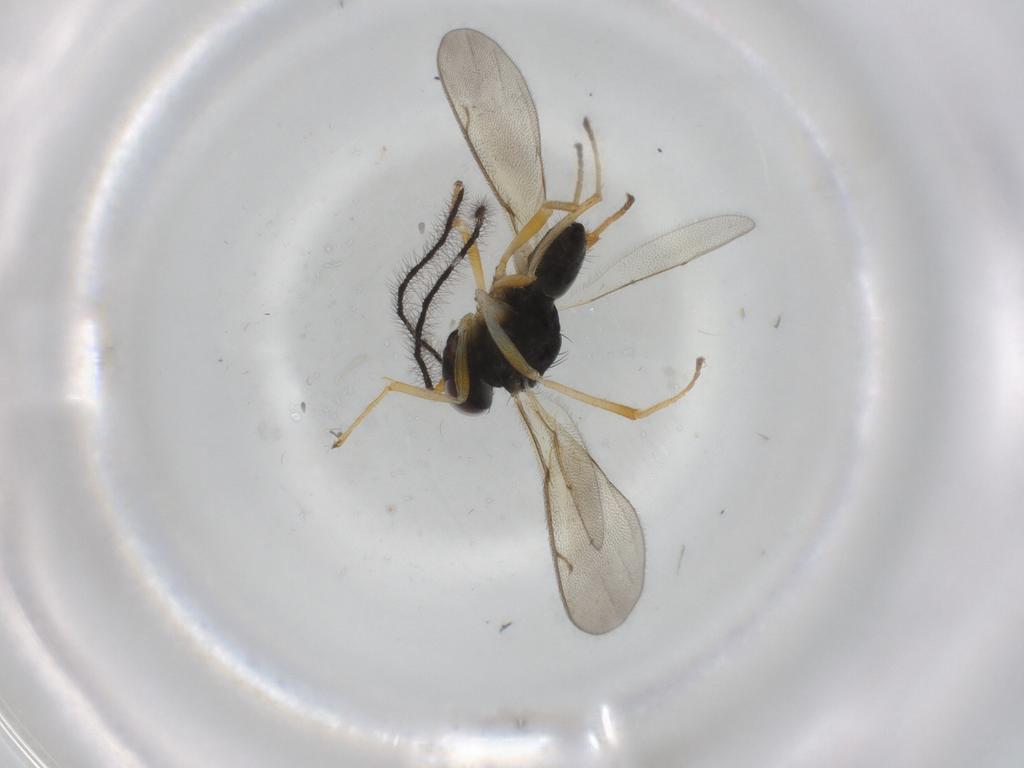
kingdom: Animalia
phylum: Arthropoda
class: Insecta
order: Hymenoptera
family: Diparidae
